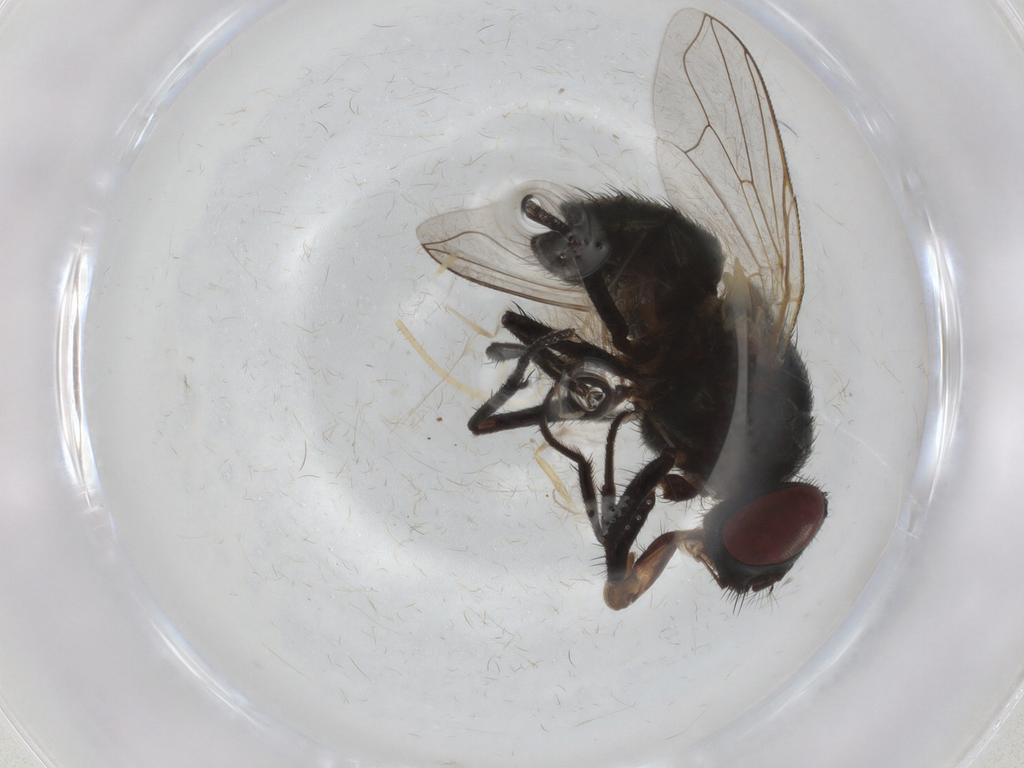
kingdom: Animalia
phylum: Arthropoda
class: Insecta
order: Diptera
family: Muscidae
